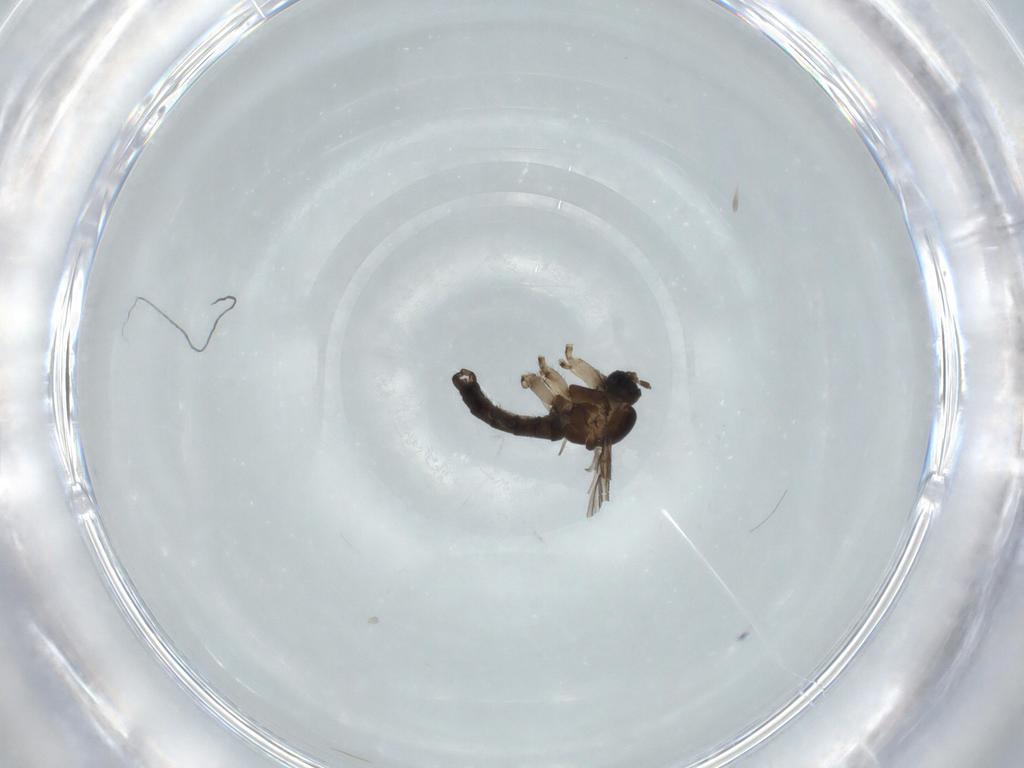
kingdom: Animalia
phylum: Arthropoda
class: Insecta
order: Diptera
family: Sciaridae
